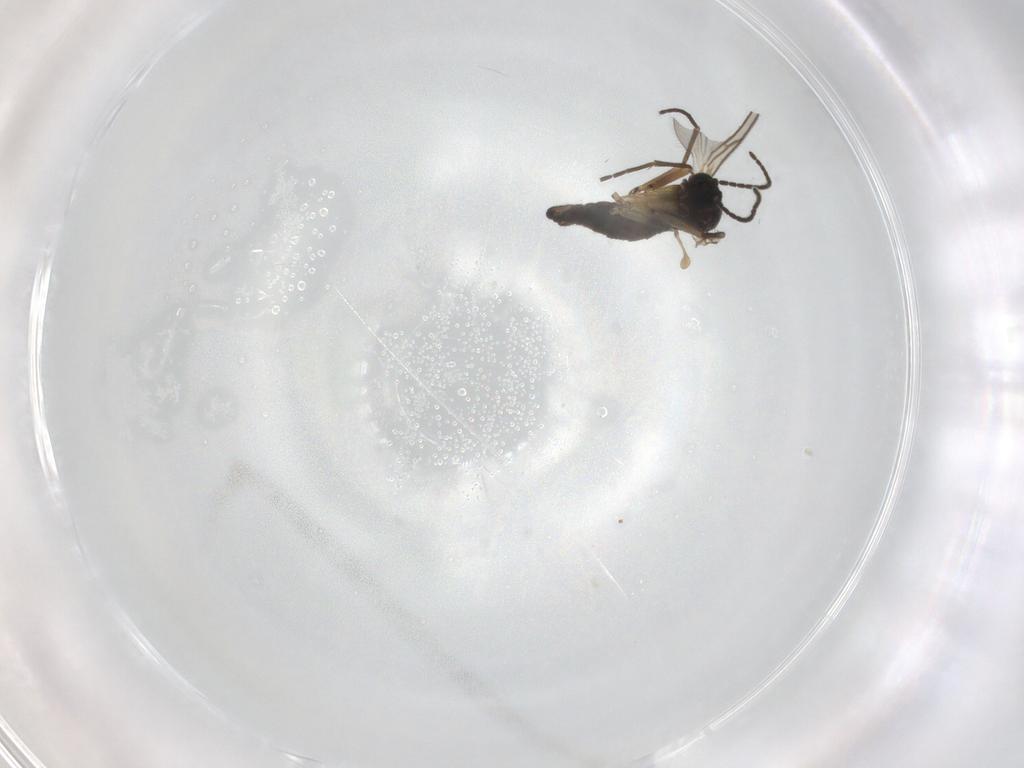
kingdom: Animalia
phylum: Arthropoda
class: Insecta
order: Diptera
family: Sciaridae
